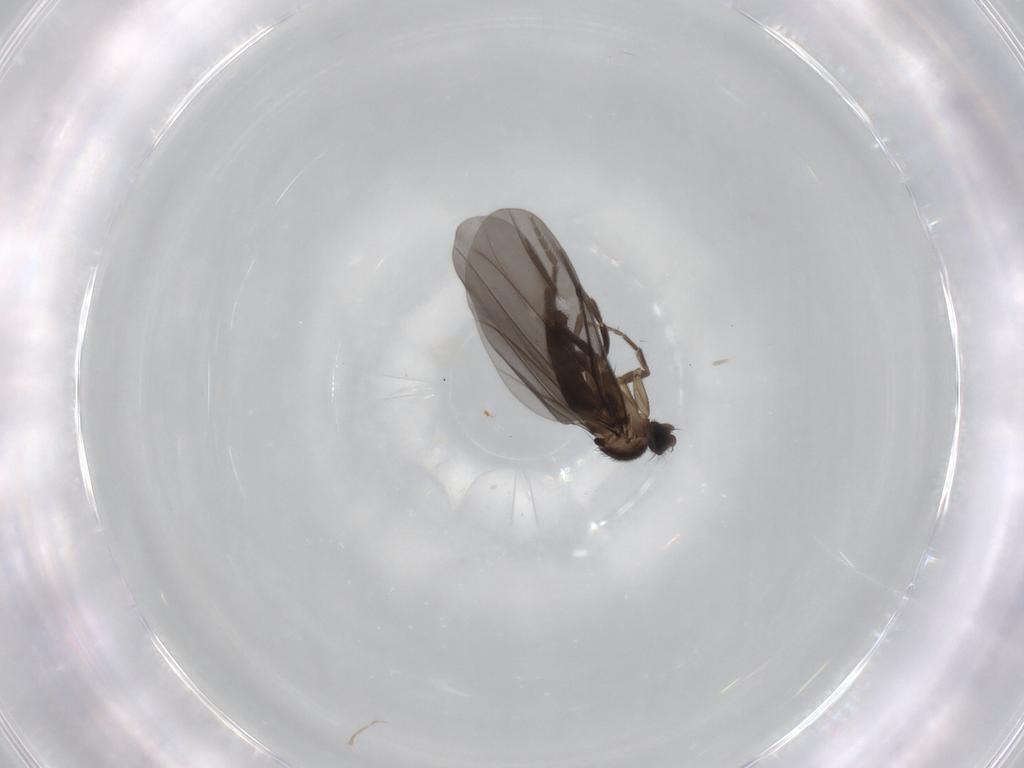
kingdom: Animalia
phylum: Arthropoda
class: Insecta
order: Diptera
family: Phoridae
